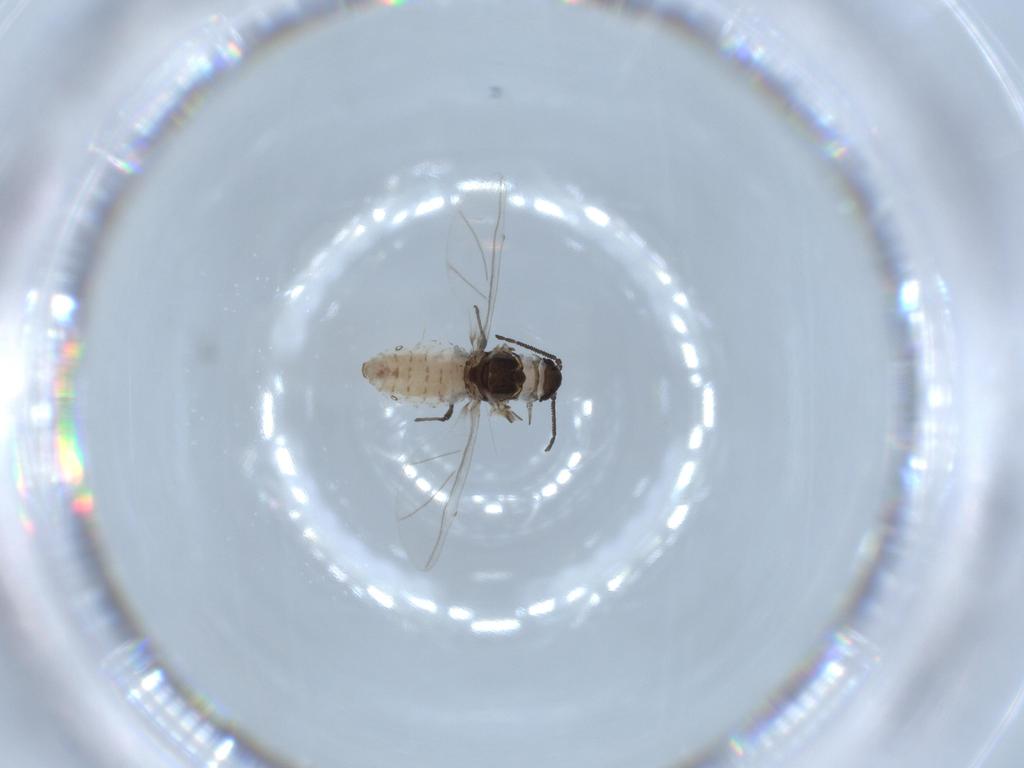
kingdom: Animalia
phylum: Arthropoda
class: Insecta
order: Hemiptera
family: Aphididae
